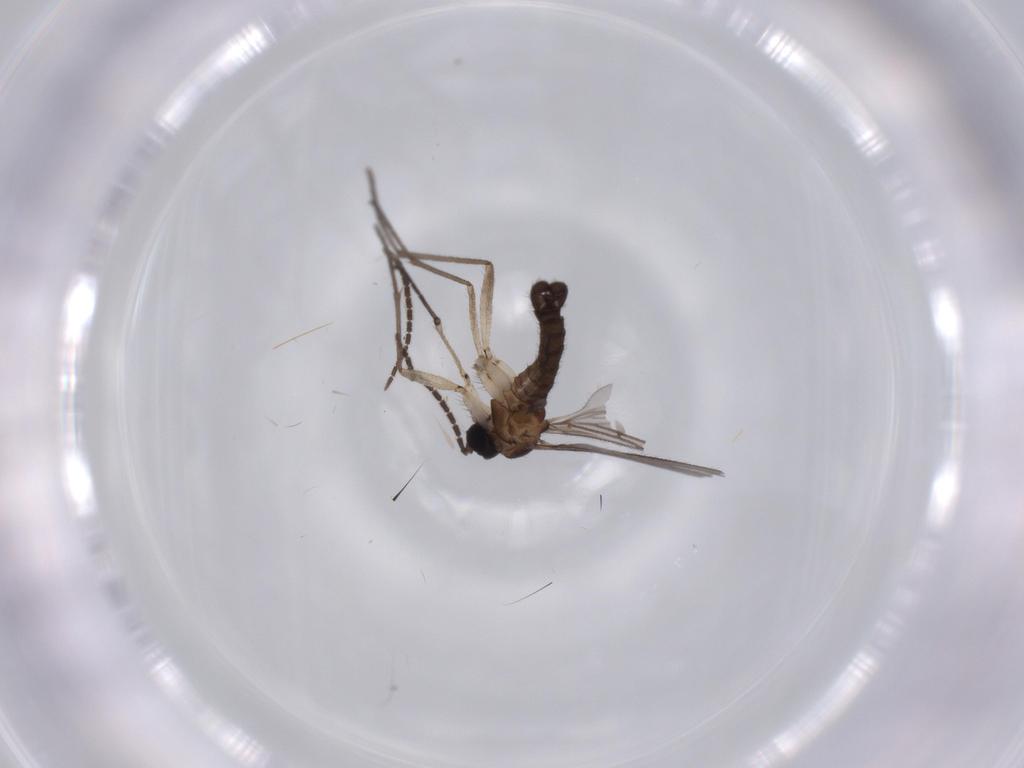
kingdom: Animalia
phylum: Arthropoda
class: Insecta
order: Diptera
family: Sciaridae
